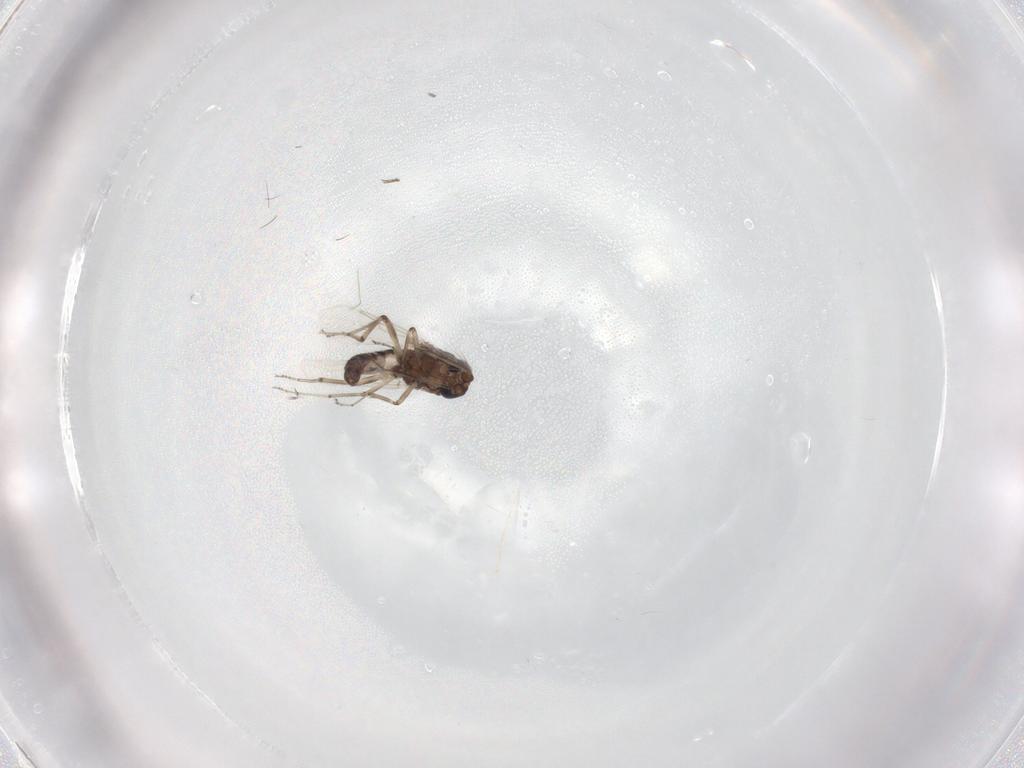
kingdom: Animalia
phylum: Arthropoda
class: Insecta
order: Diptera
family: Ceratopogonidae
